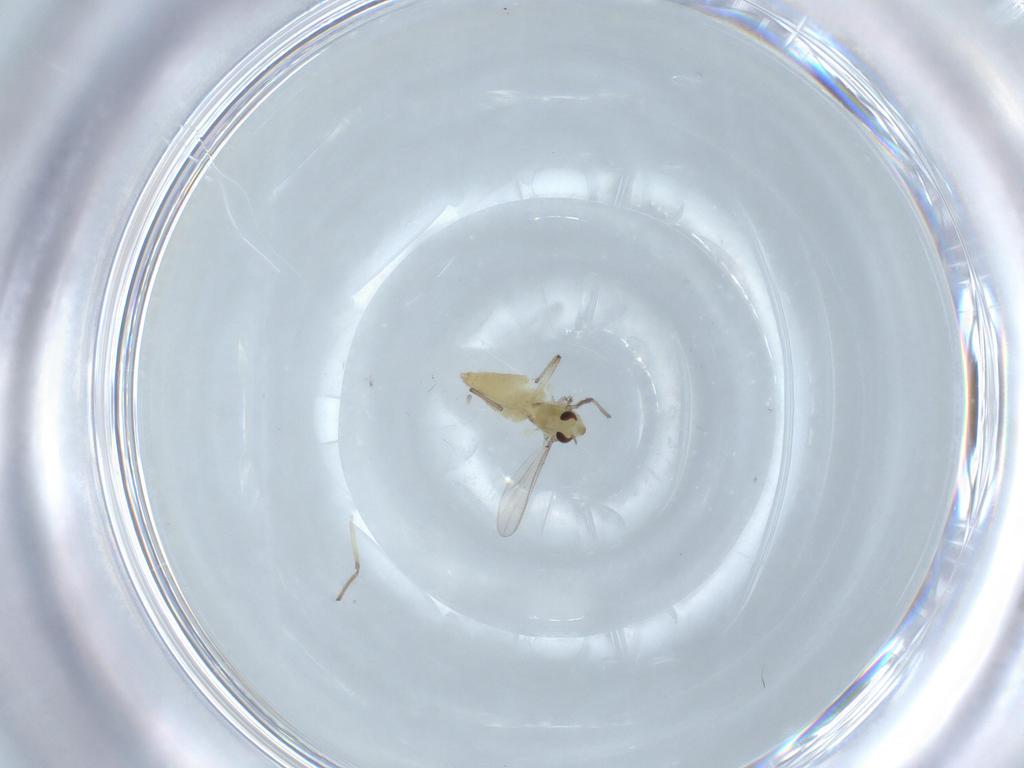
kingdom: Animalia
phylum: Arthropoda
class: Insecta
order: Diptera
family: Chironomidae
